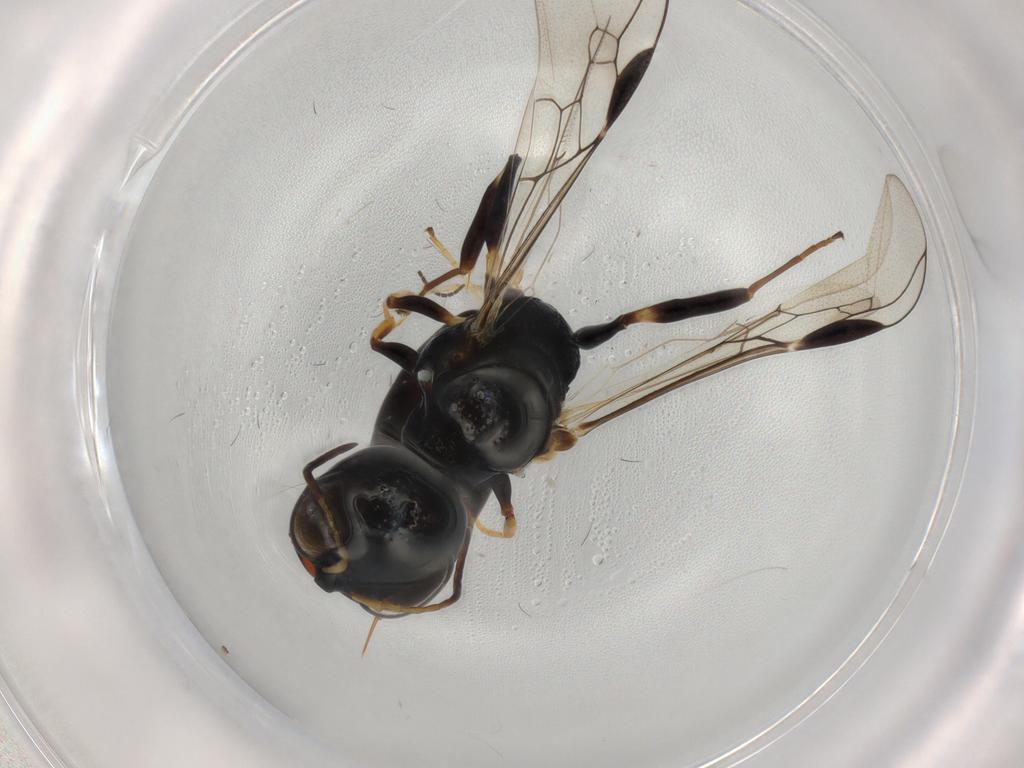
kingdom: Animalia
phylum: Arthropoda
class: Insecta
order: Hymenoptera
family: Pemphredonidae
